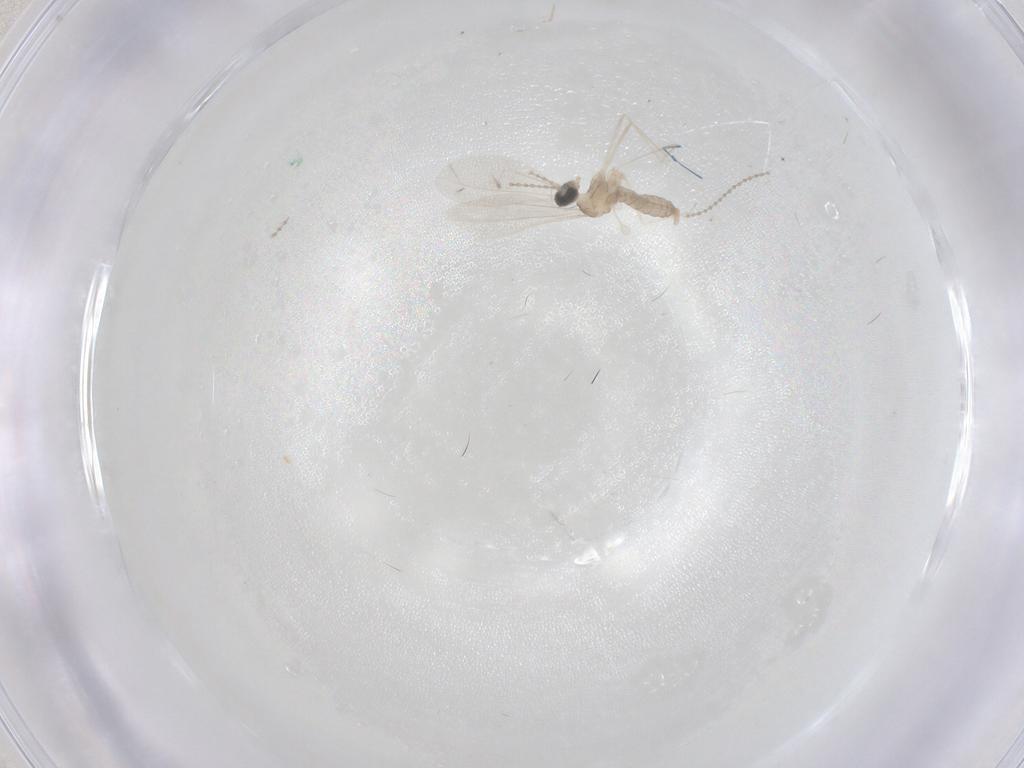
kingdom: Animalia
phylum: Arthropoda
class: Insecta
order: Diptera
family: Cecidomyiidae
